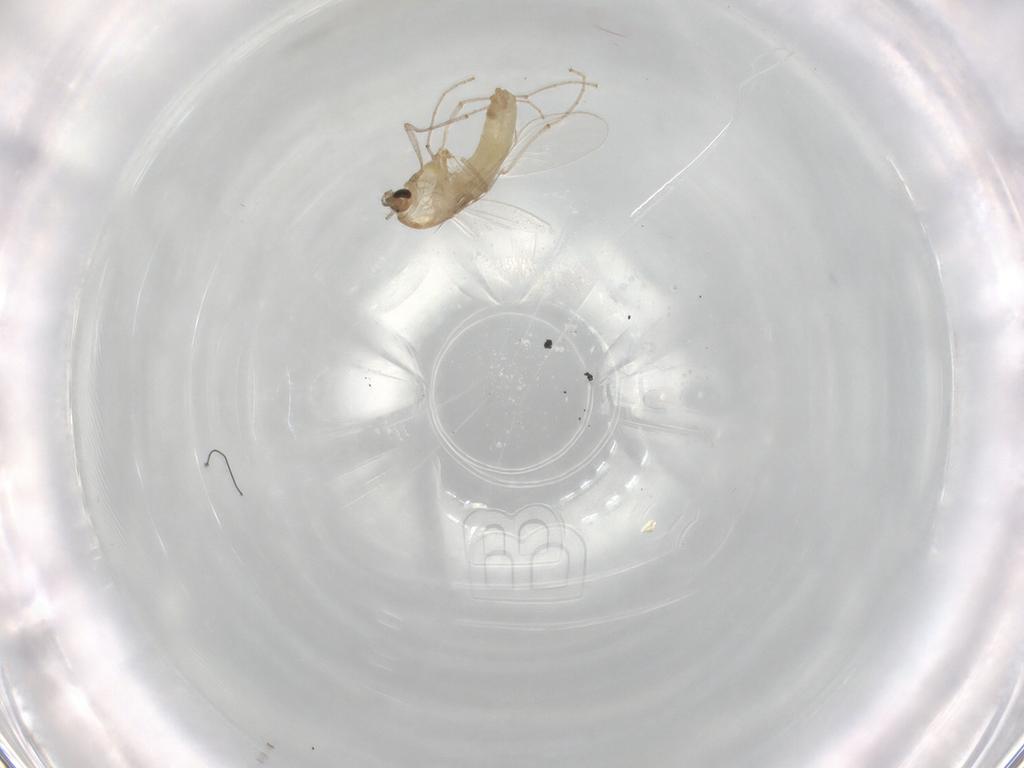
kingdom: Animalia
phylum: Arthropoda
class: Insecta
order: Diptera
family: Chironomidae
